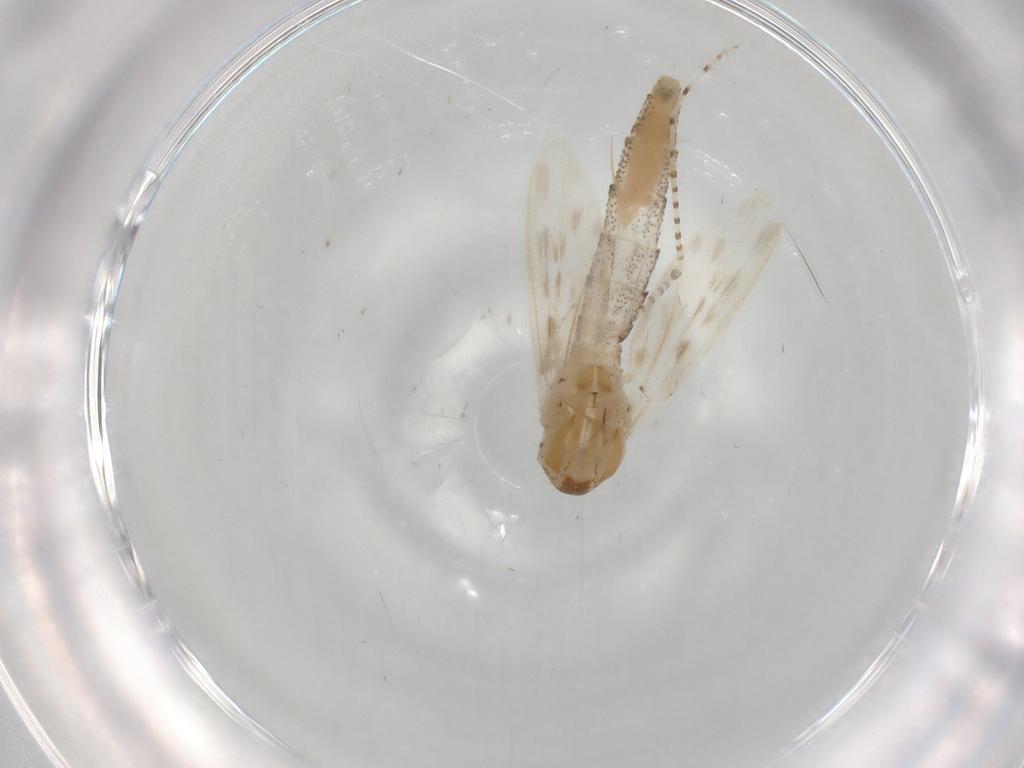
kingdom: Animalia
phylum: Arthropoda
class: Insecta
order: Diptera
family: Chaoboridae
